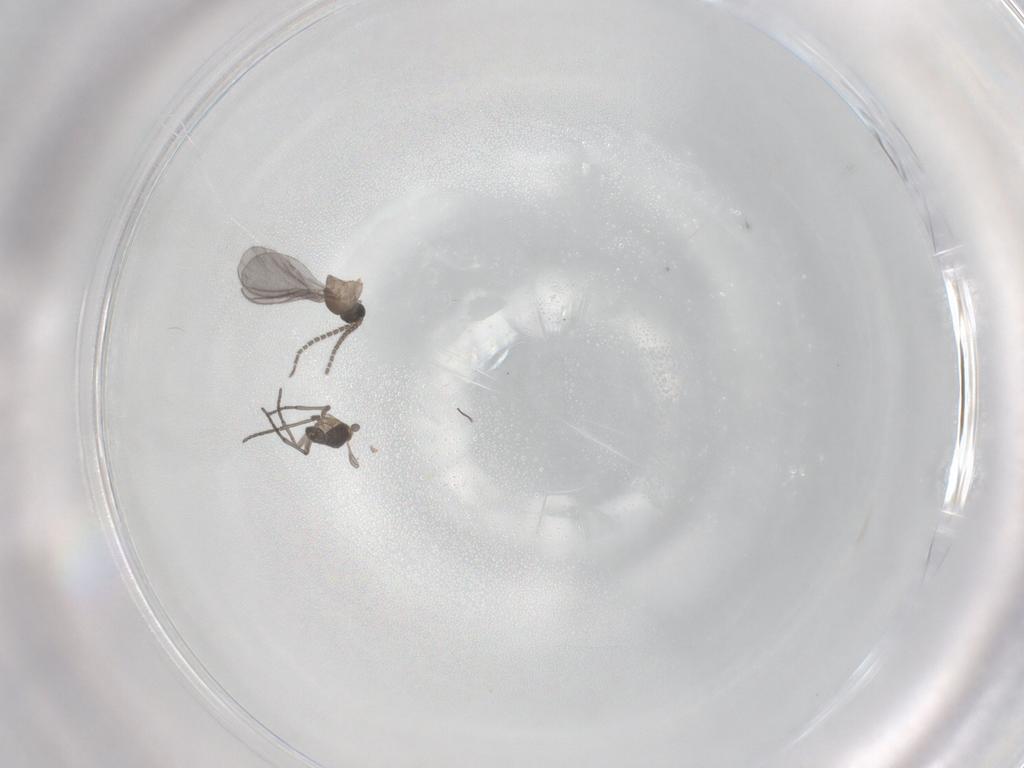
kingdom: Animalia
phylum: Arthropoda
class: Insecta
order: Diptera
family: Sciaridae
